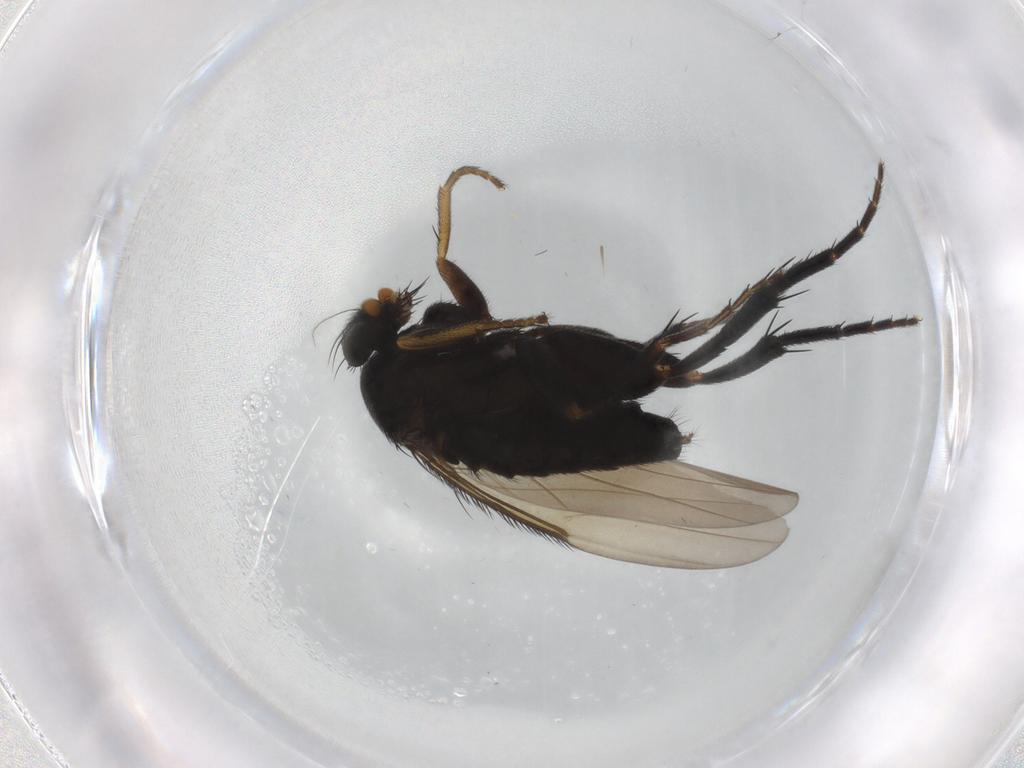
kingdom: Animalia
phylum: Arthropoda
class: Insecta
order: Diptera
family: Phoridae
